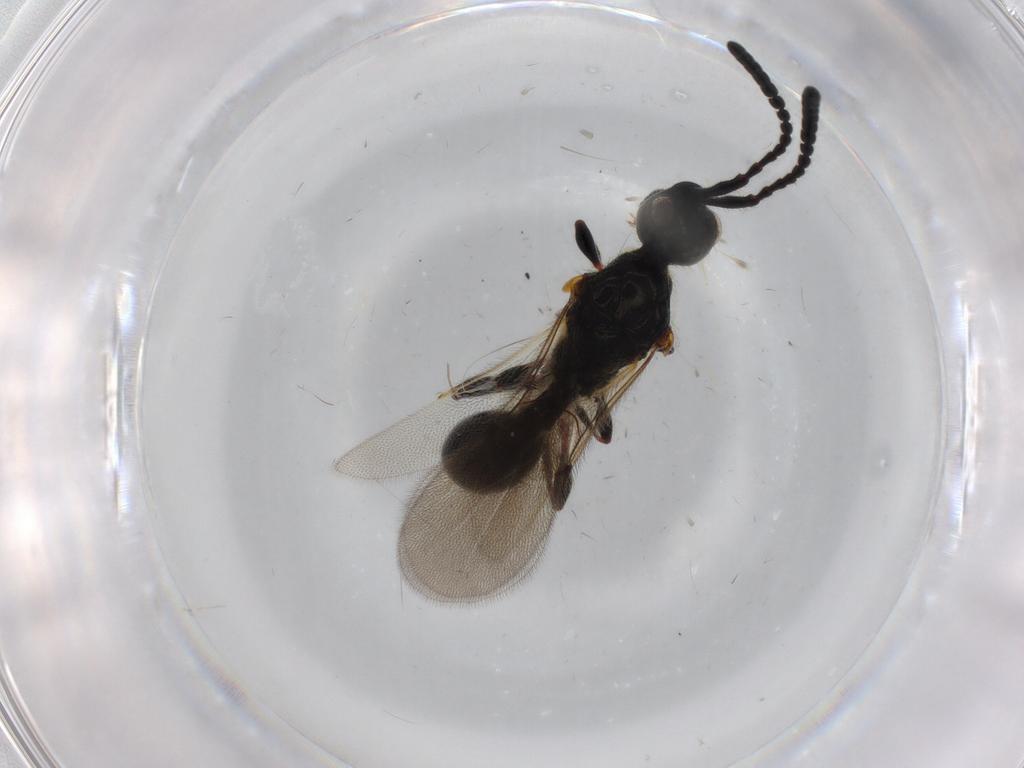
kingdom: Animalia
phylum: Arthropoda
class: Insecta
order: Hymenoptera
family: Diapriidae
